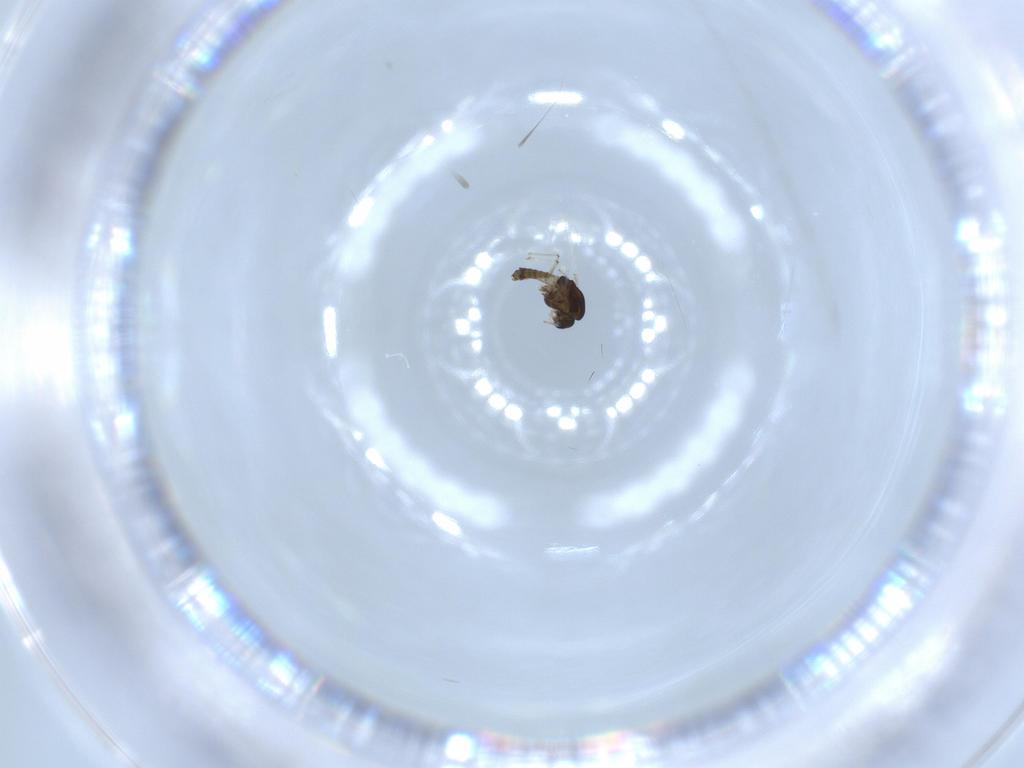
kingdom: Animalia
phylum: Arthropoda
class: Insecta
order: Diptera
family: Chironomidae
